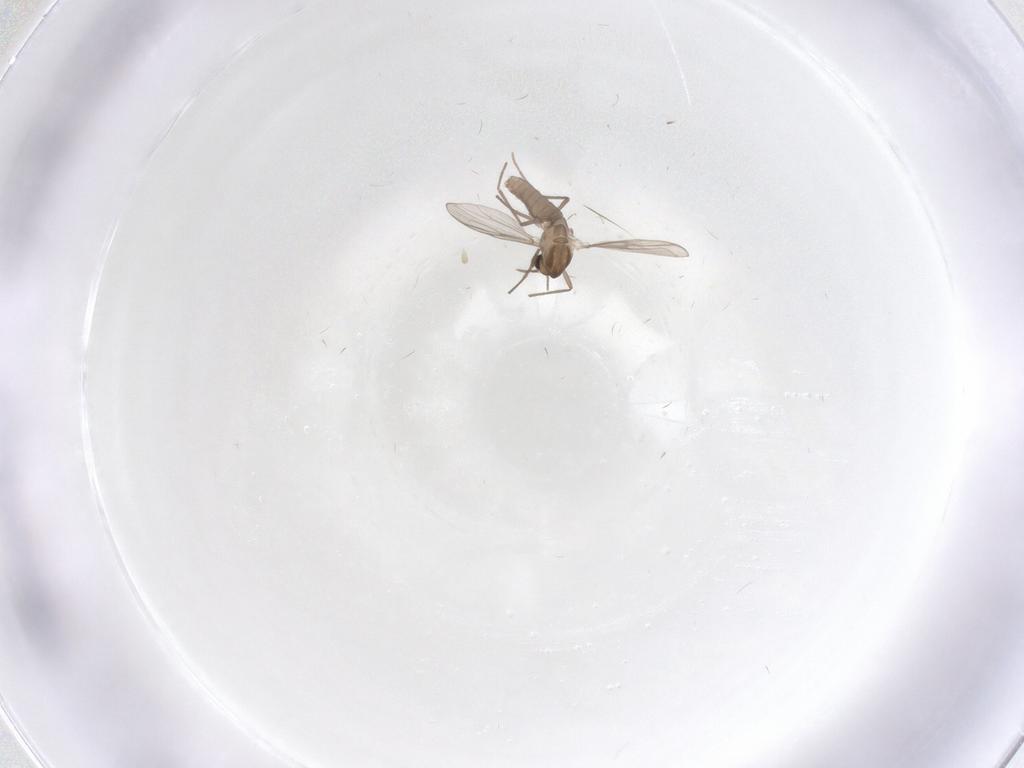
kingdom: Animalia
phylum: Arthropoda
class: Insecta
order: Diptera
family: Chironomidae
